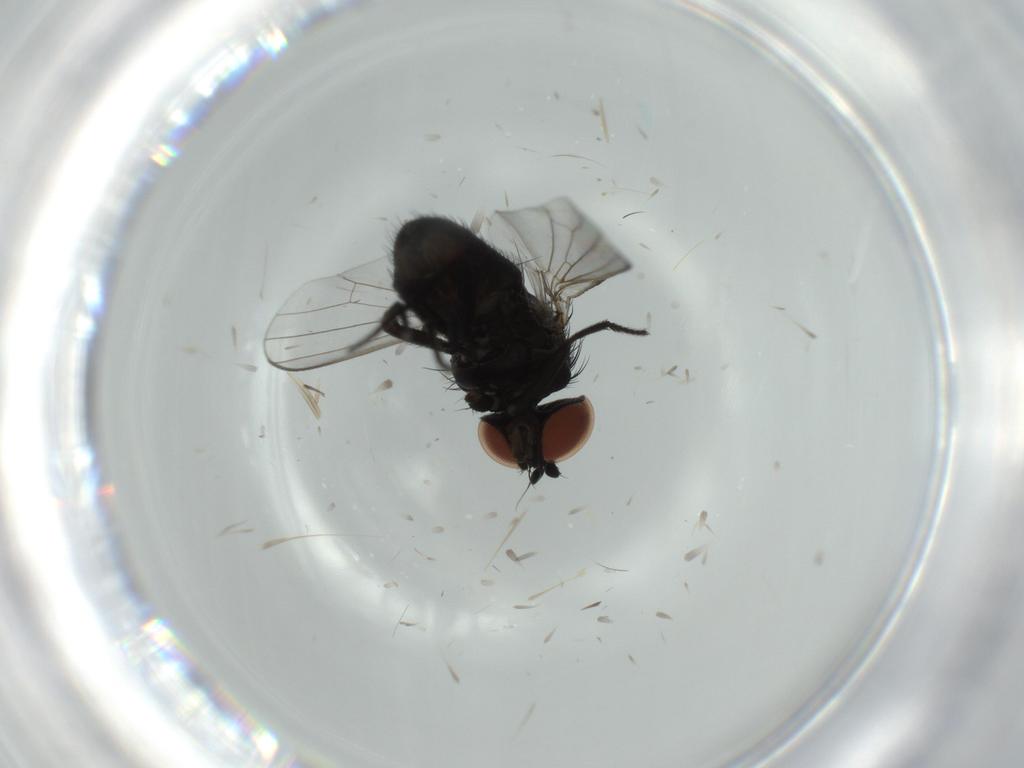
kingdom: Animalia
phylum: Arthropoda
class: Insecta
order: Diptera
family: Milichiidae
